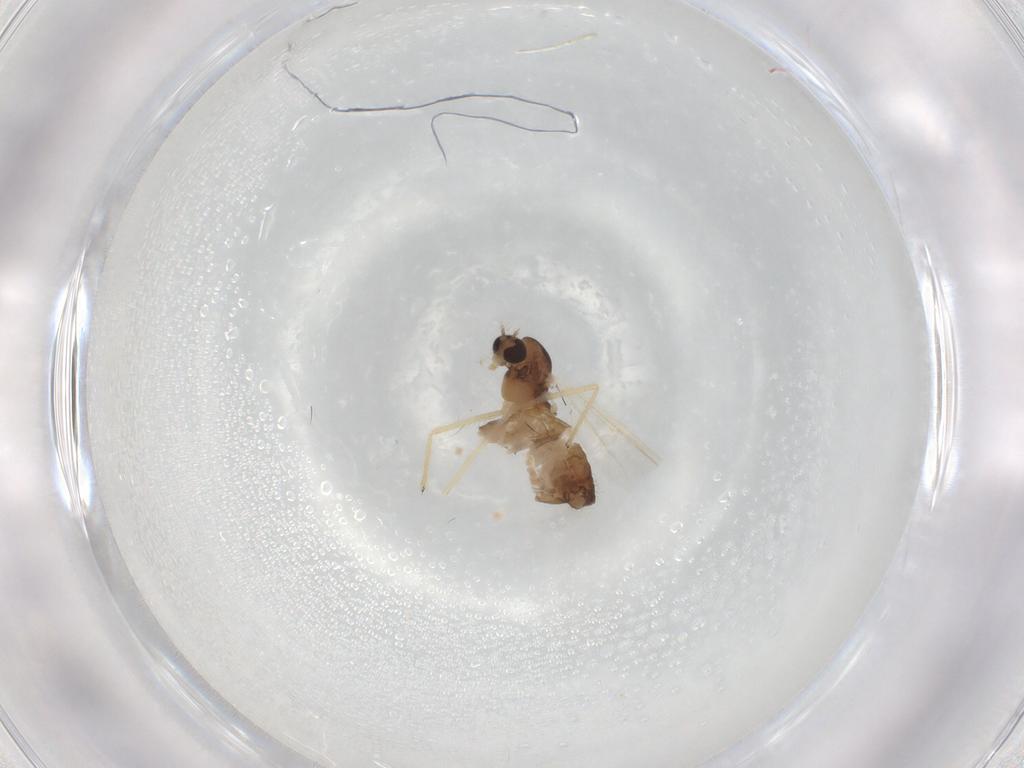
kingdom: Animalia
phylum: Arthropoda
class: Insecta
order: Diptera
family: Chironomidae
